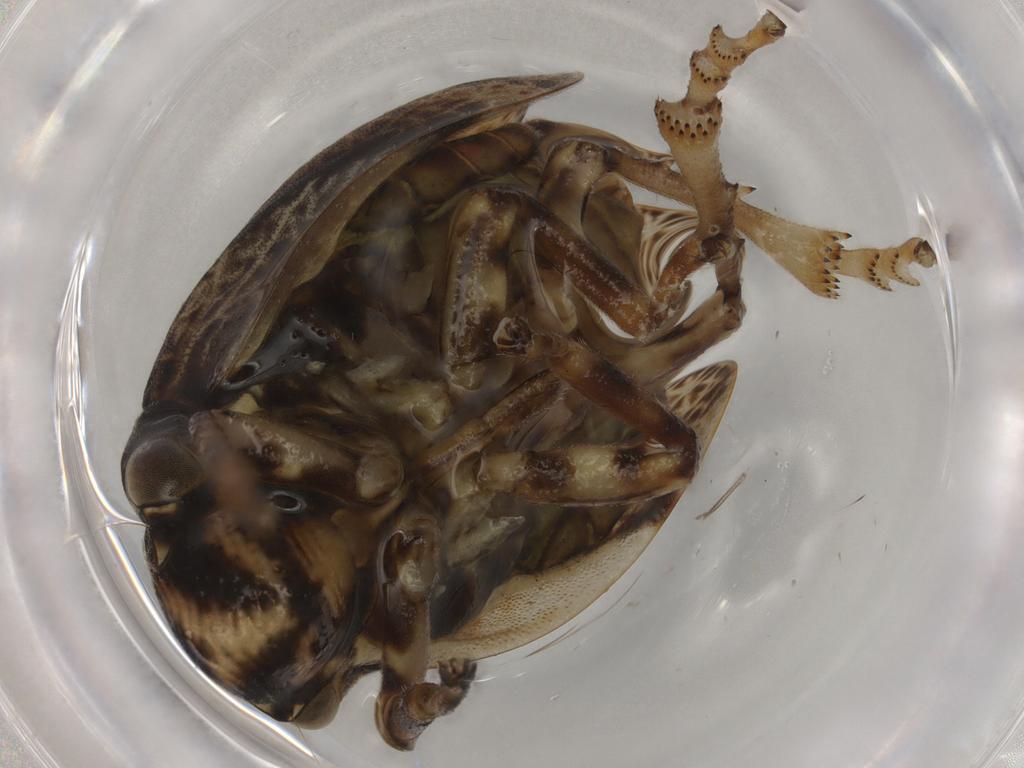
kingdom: Animalia
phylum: Arthropoda
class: Insecta
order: Hemiptera
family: Aphrophoridae
